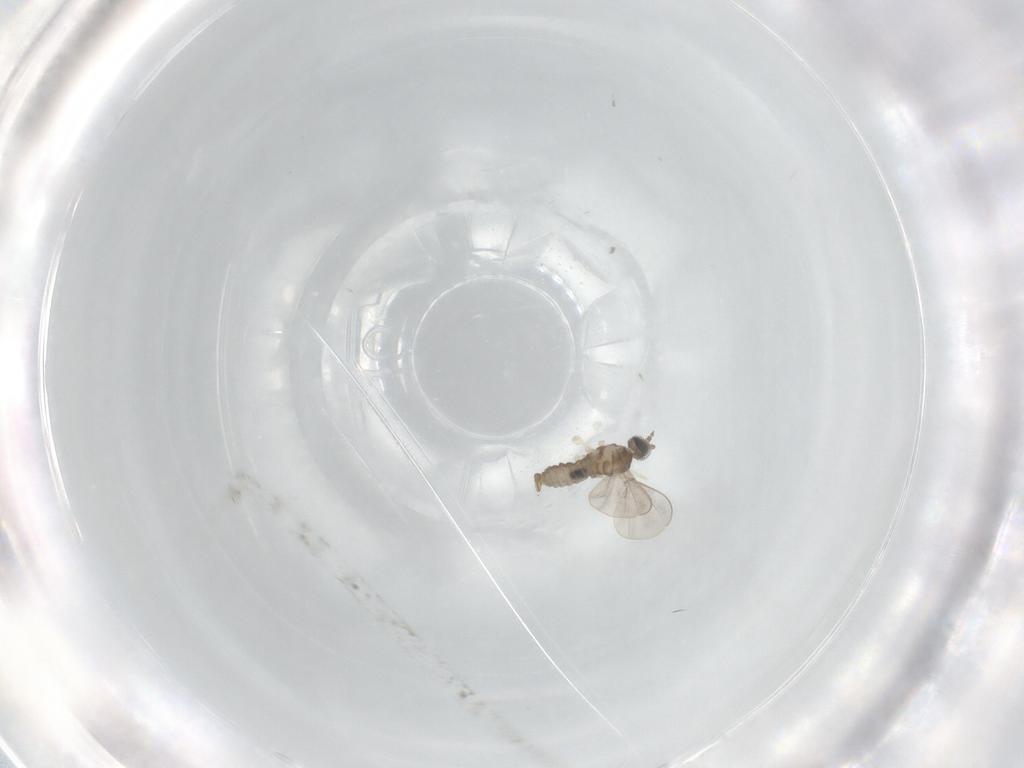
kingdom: Animalia
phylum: Arthropoda
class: Insecta
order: Diptera
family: Cecidomyiidae
